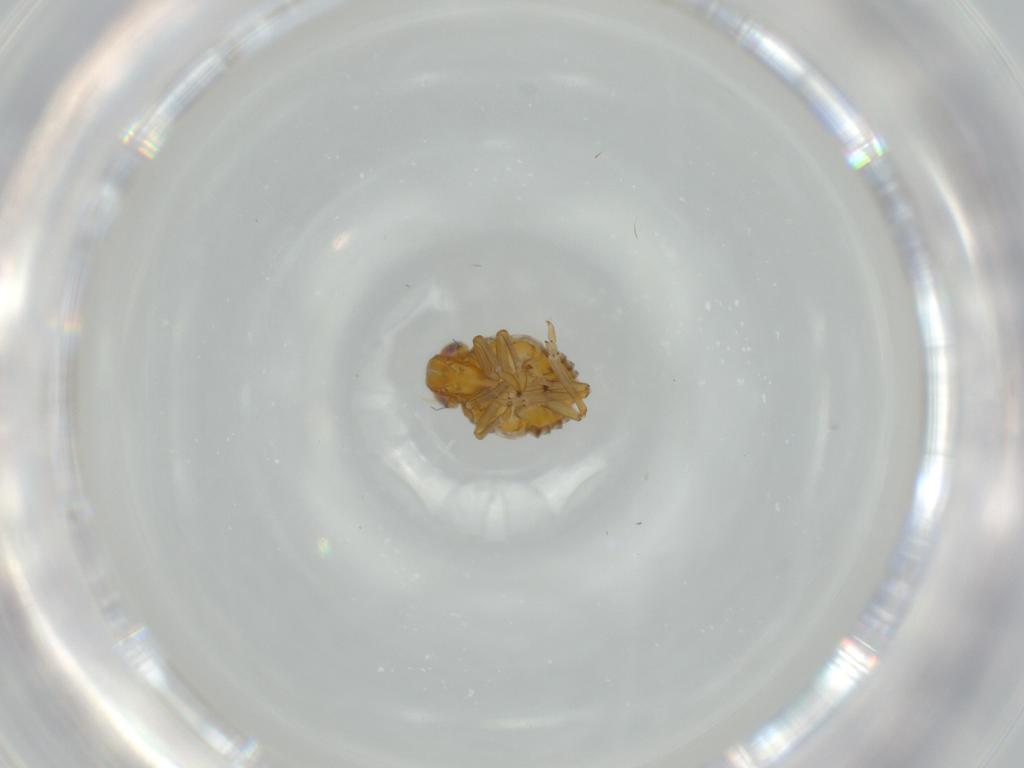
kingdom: Animalia
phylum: Arthropoda
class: Insecta
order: Hemiptera
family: Issidae
